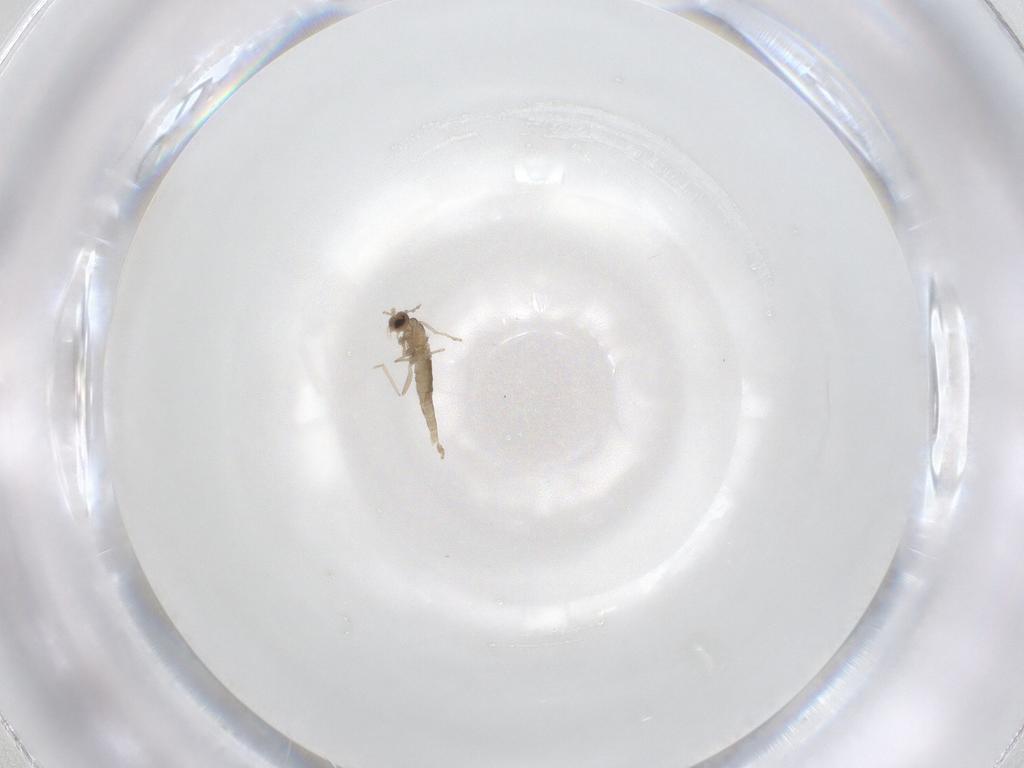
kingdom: Animalia
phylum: Arthropoda
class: Insecta
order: Diptera
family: Cecidomyiidae
